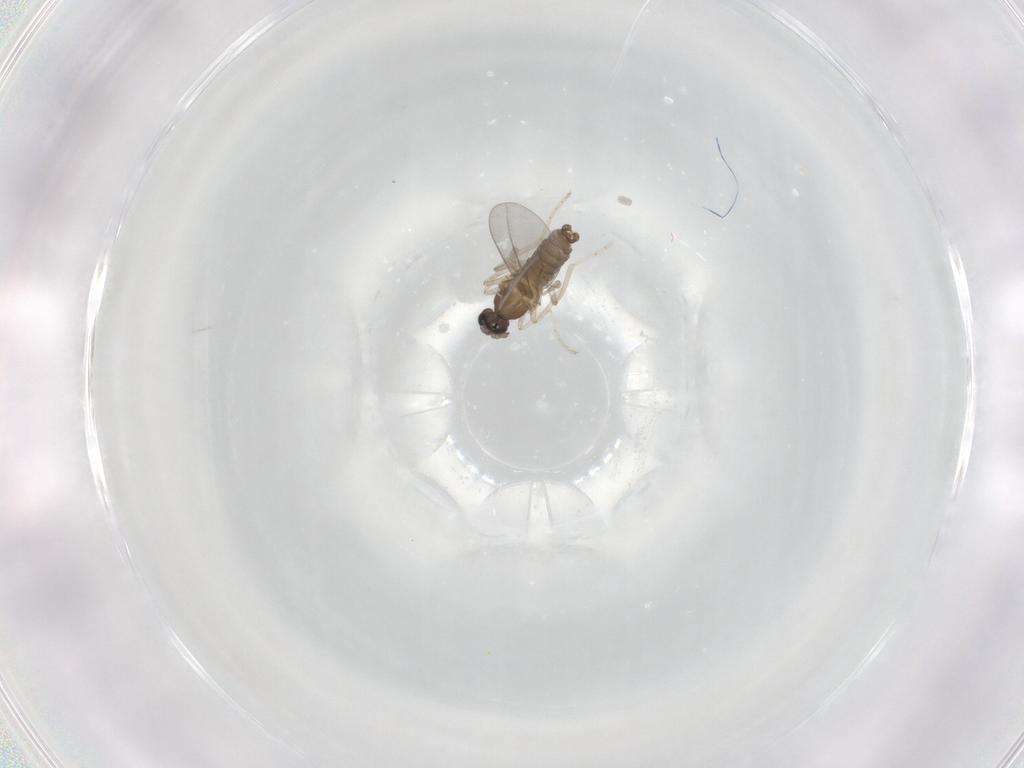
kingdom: Animalia
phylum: Arthropoda
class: Insecta
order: Diptera
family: Cecidomyiidae
